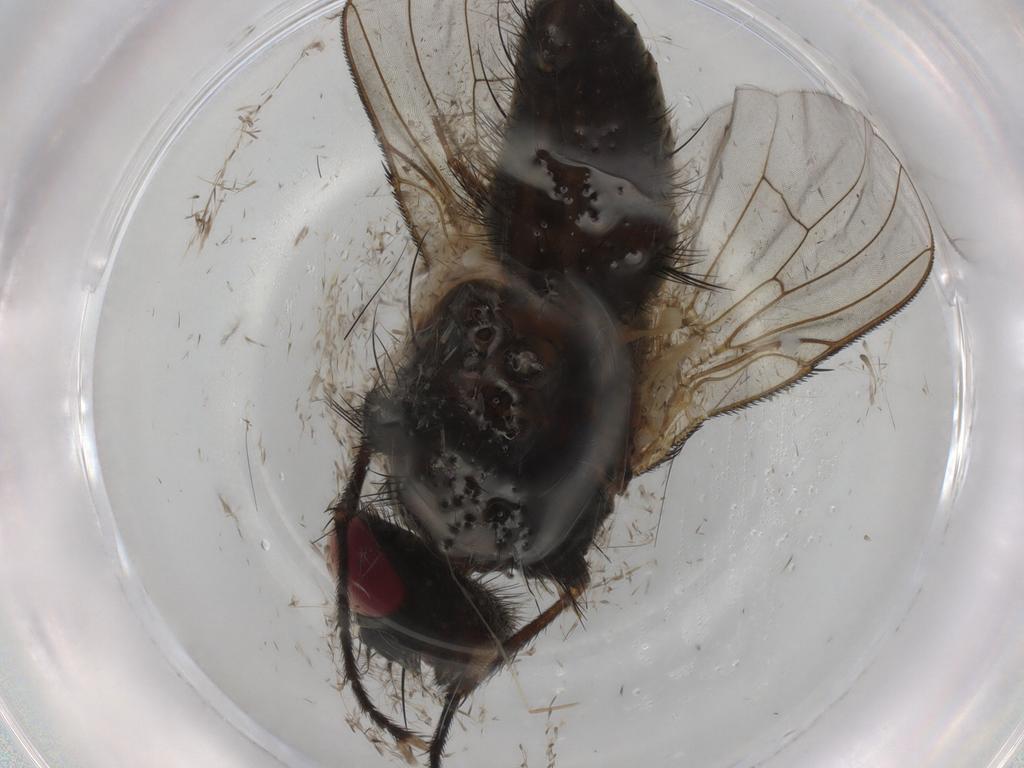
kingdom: Animalia
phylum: Arthropoda
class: Insecta
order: Diptera
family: Muscidae
